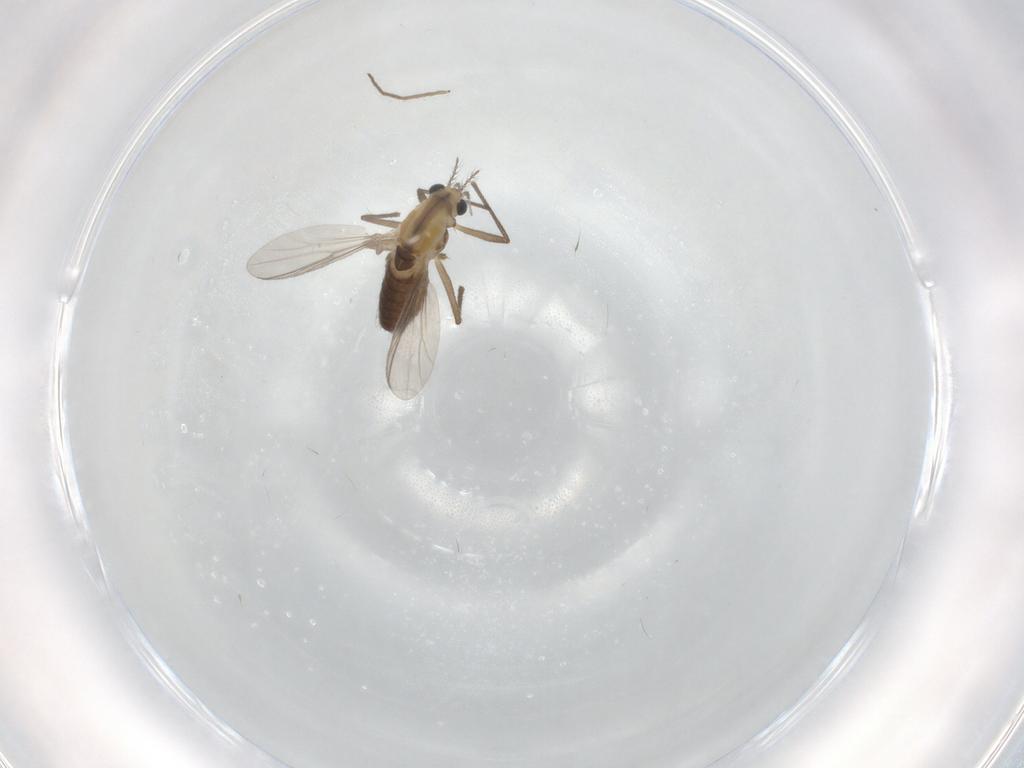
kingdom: Animalia
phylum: Arthropoda
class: Insecta
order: Diptera
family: Chironomidae
